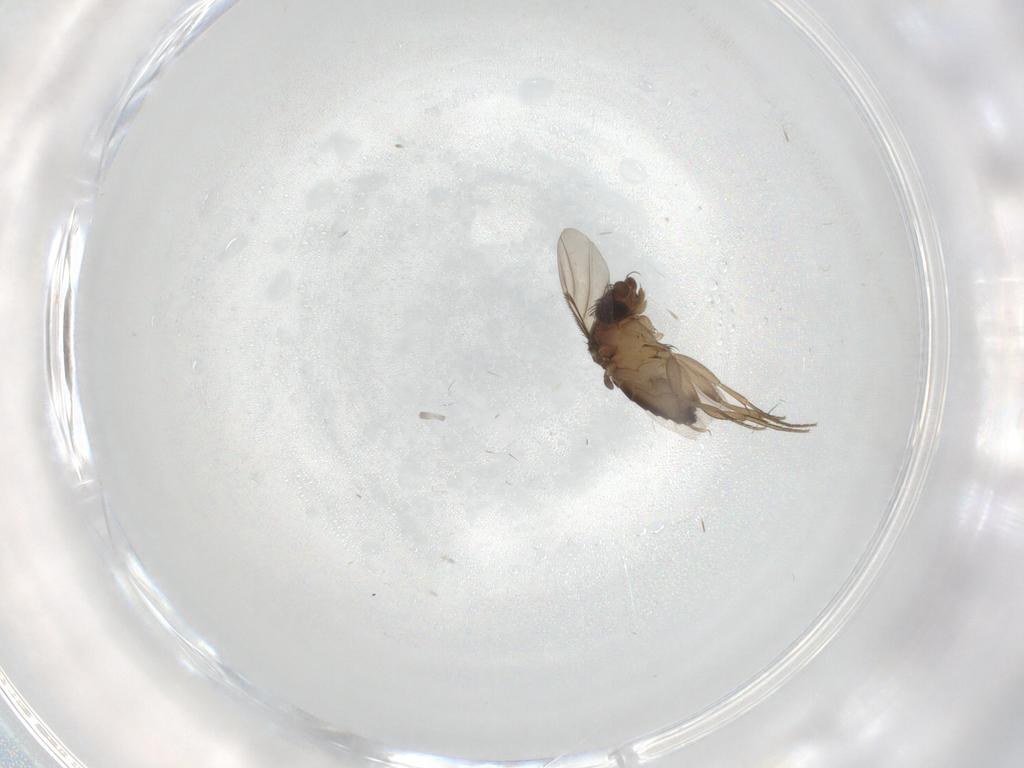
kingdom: Animalia
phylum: Arthropoda
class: Insecta
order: Diptera
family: Phoridae
